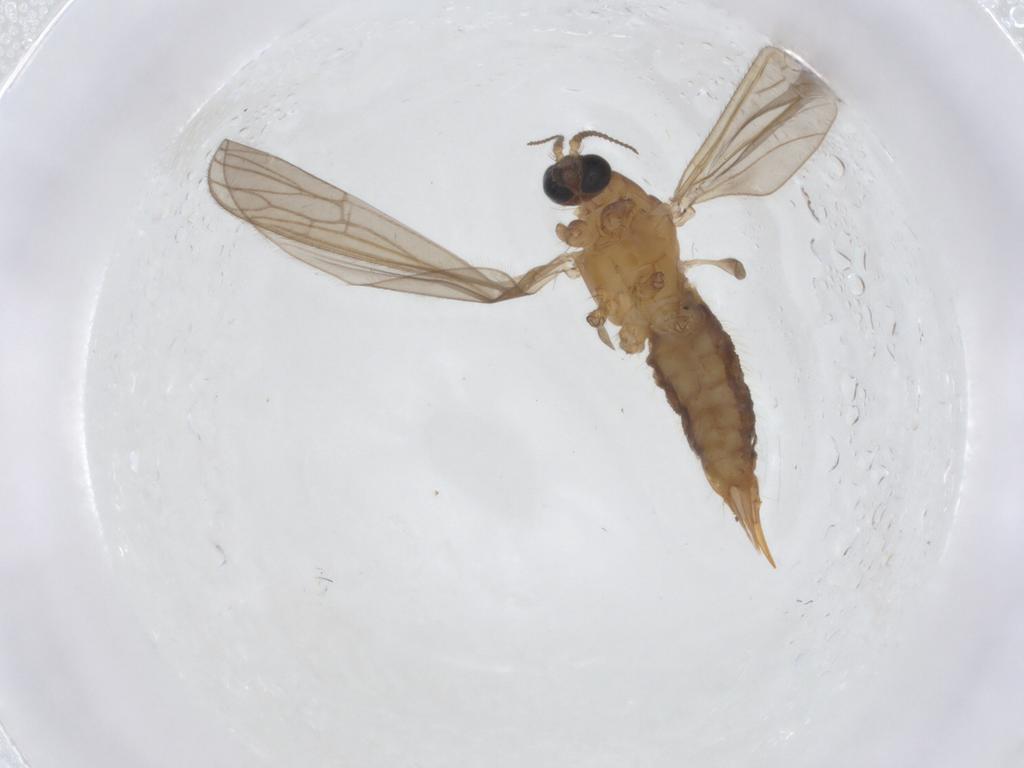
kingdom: Animalia
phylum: Arthropoda
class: Insecta
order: Diptera
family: Limoniidae
